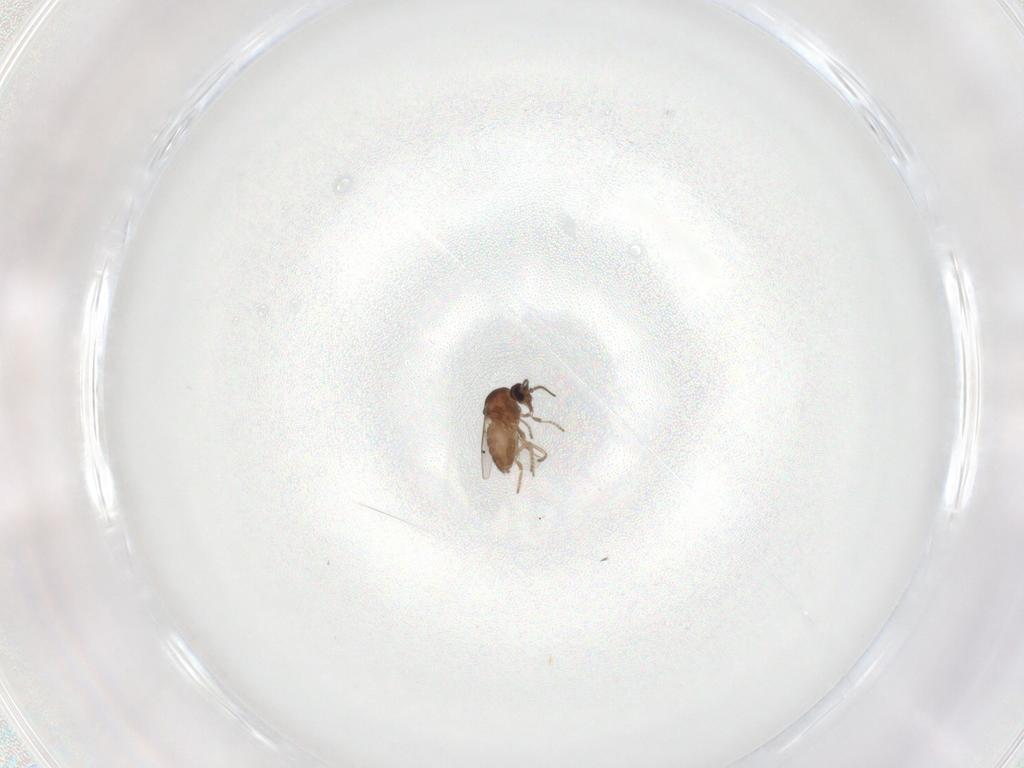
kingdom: Animalia
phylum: Arthropoda
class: Insecta
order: Diptera
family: Ceratopogonidae
